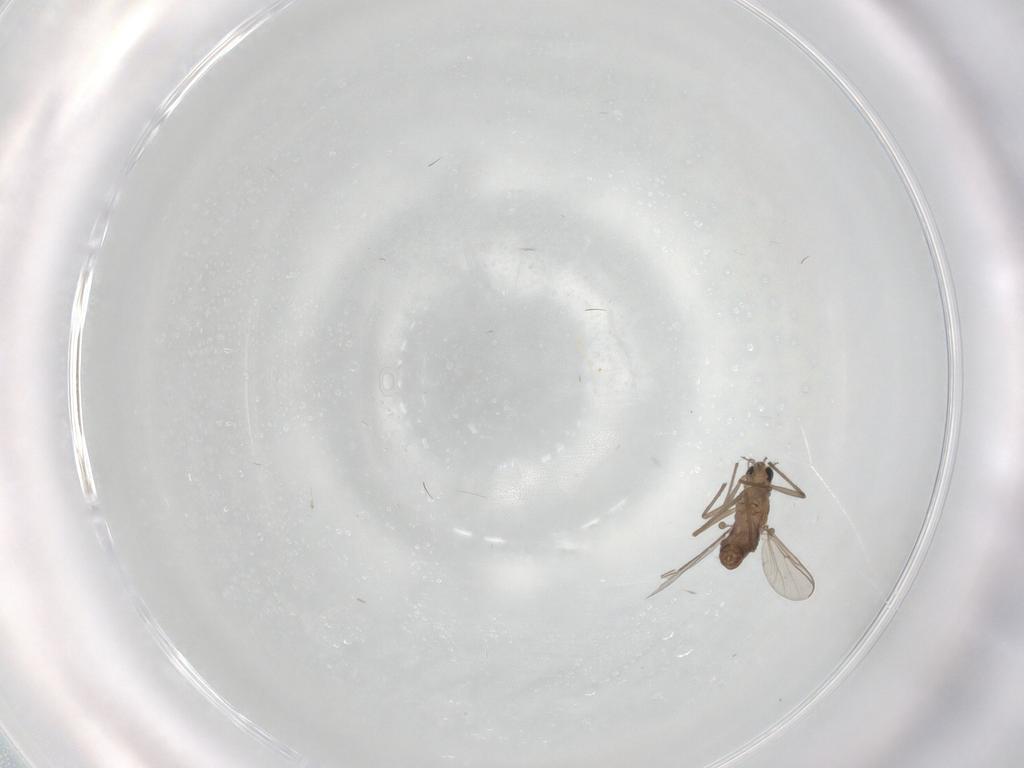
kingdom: Animalia
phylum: Arthropoda
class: Insecta
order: Diptera
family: Chironomidae
